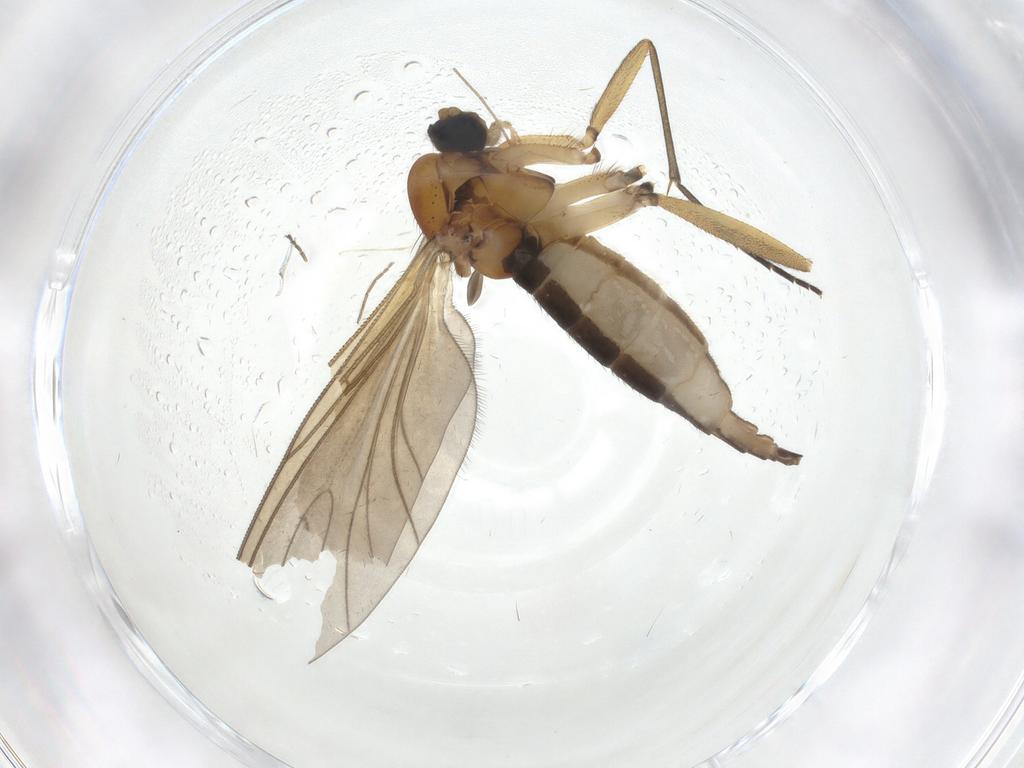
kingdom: Animalia
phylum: Arthropoda
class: Insecta
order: Diptera
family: Sciaridae
